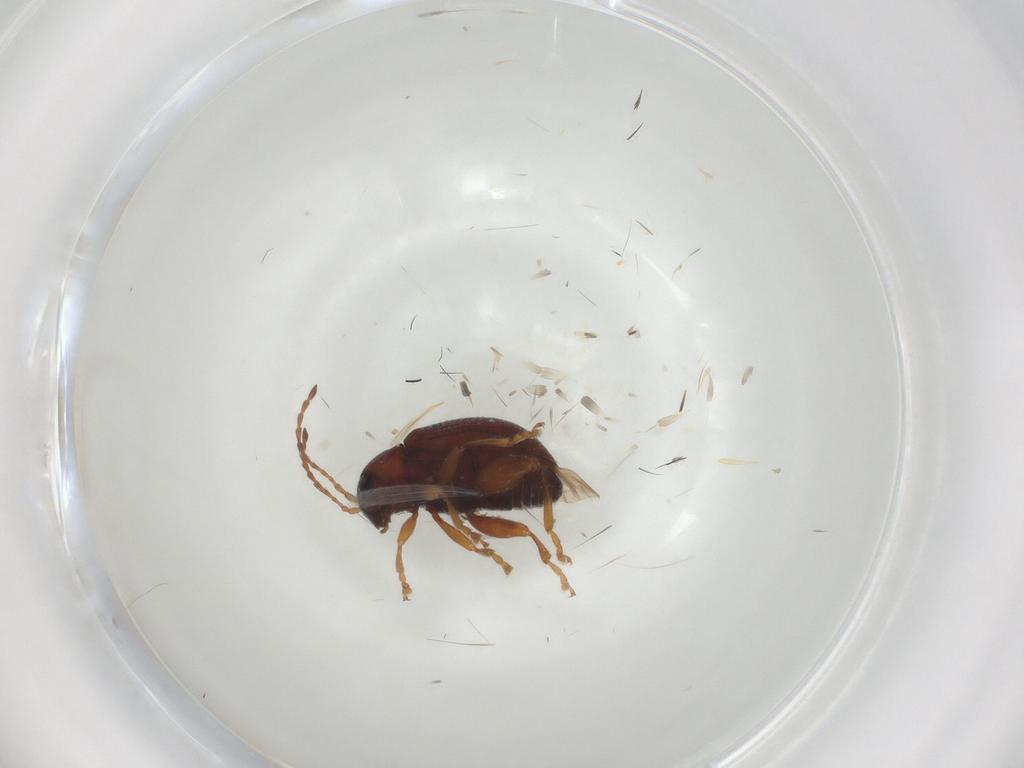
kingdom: Animalia
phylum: Arthropoda
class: Insecta
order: Coleoptera
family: Chrysomelidae
